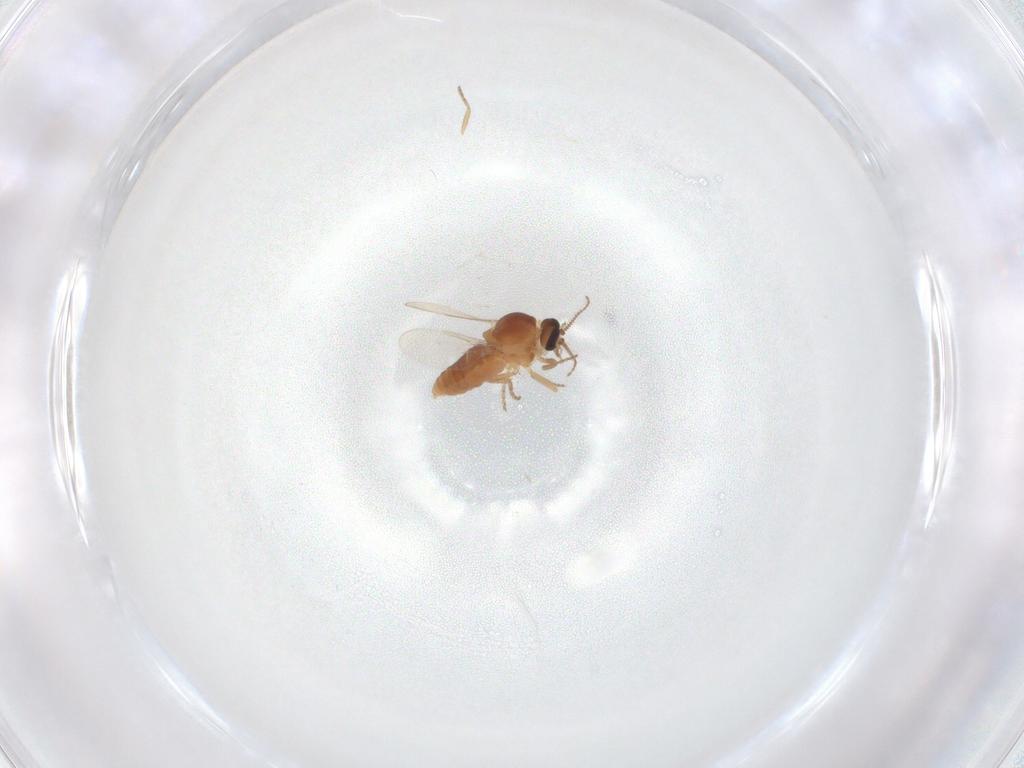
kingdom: Animalia
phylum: Arthropoda
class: Insecta
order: Diptera
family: Ceratopogonidae
